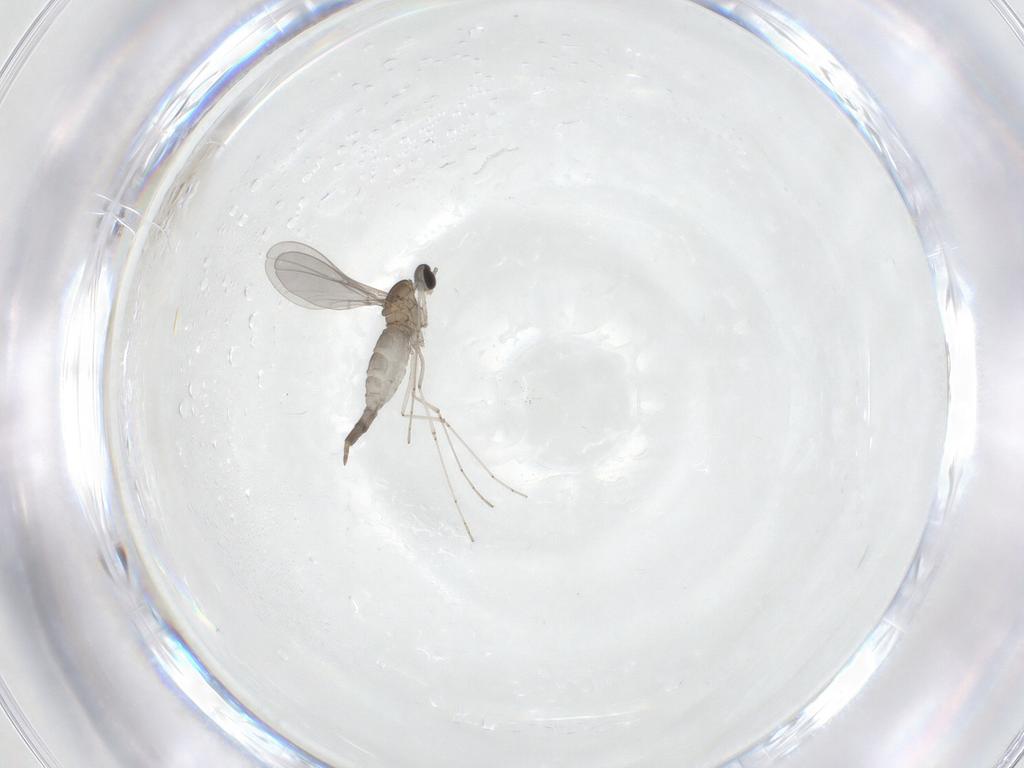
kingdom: Animalia
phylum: Arthropoda
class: Insecta
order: Diptera
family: Cecidomyiidae
